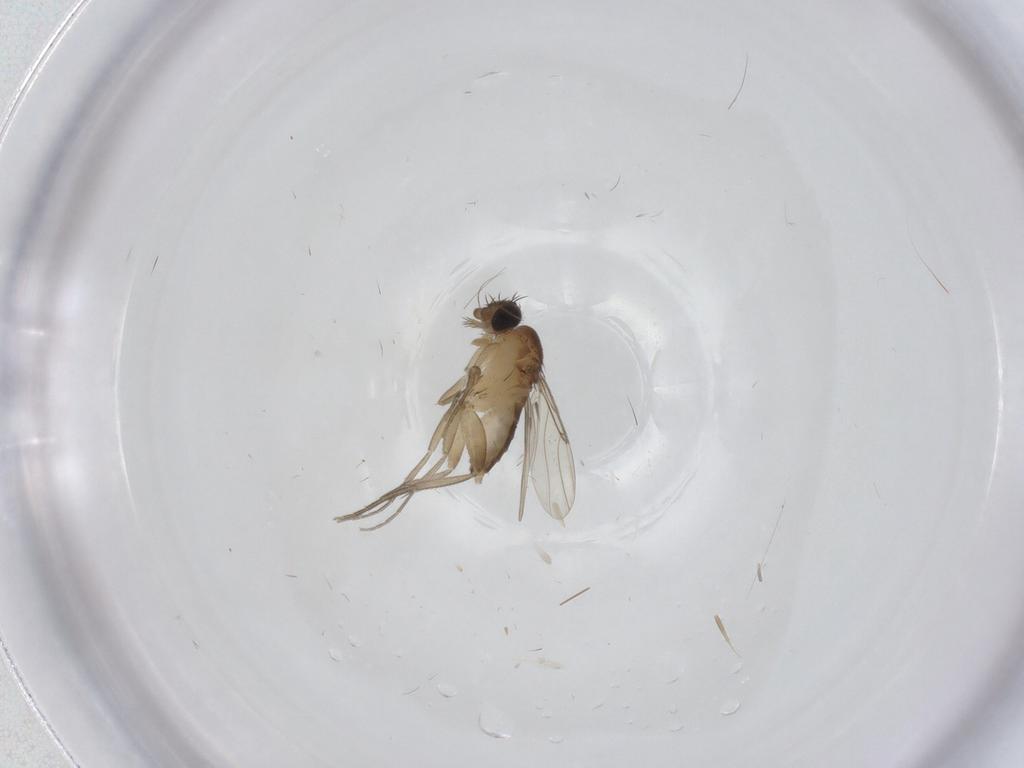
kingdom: Animalia
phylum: Arthropoda
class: Insecta
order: Diptera
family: Phoridae
